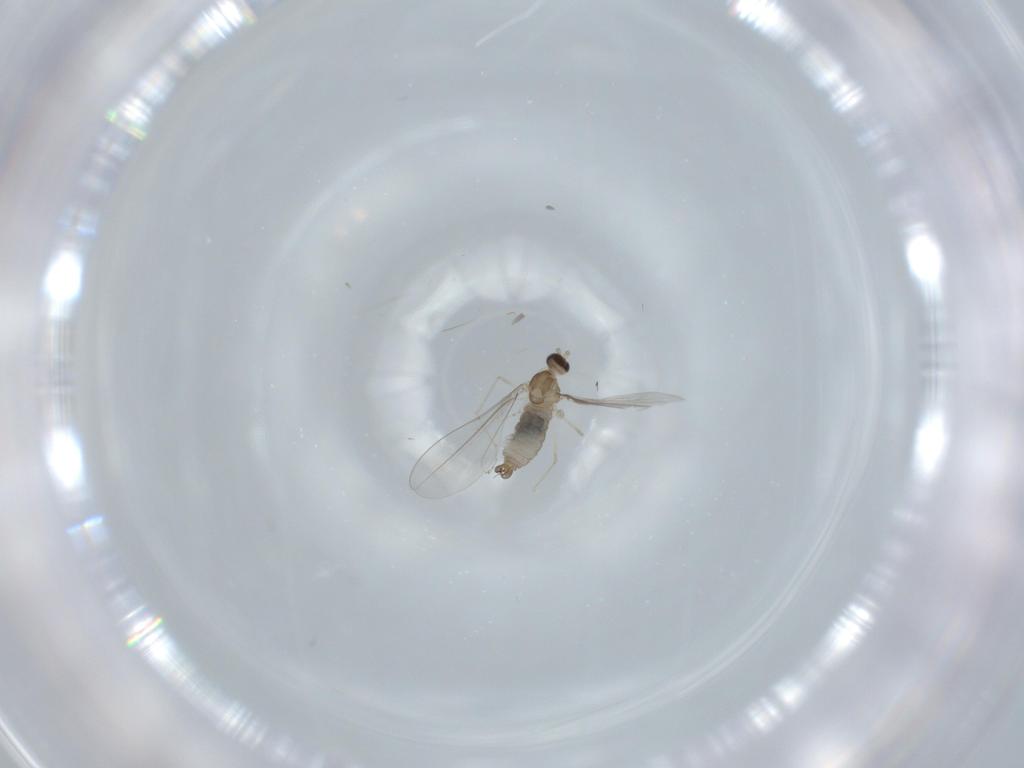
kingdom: Animalia
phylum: Arthropoda
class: Insecta
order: Diptera
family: Cecidomyiidae
